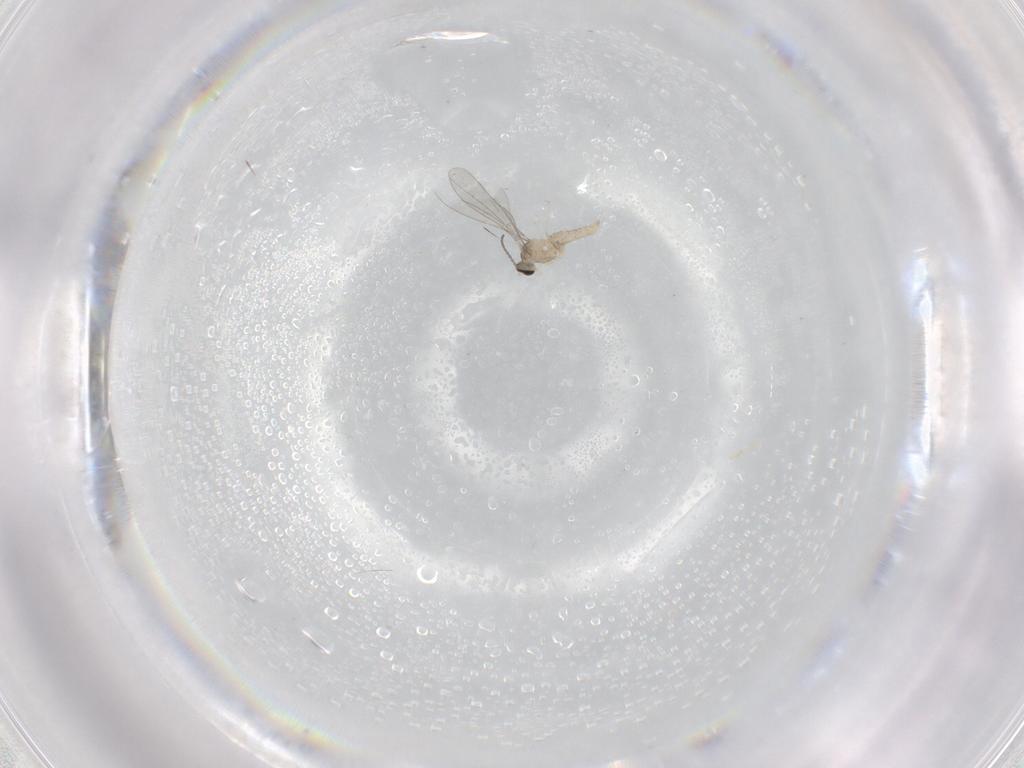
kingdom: Animalia
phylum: Arthropoda
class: Insecta
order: Diptera
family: Cecidomyiidae
